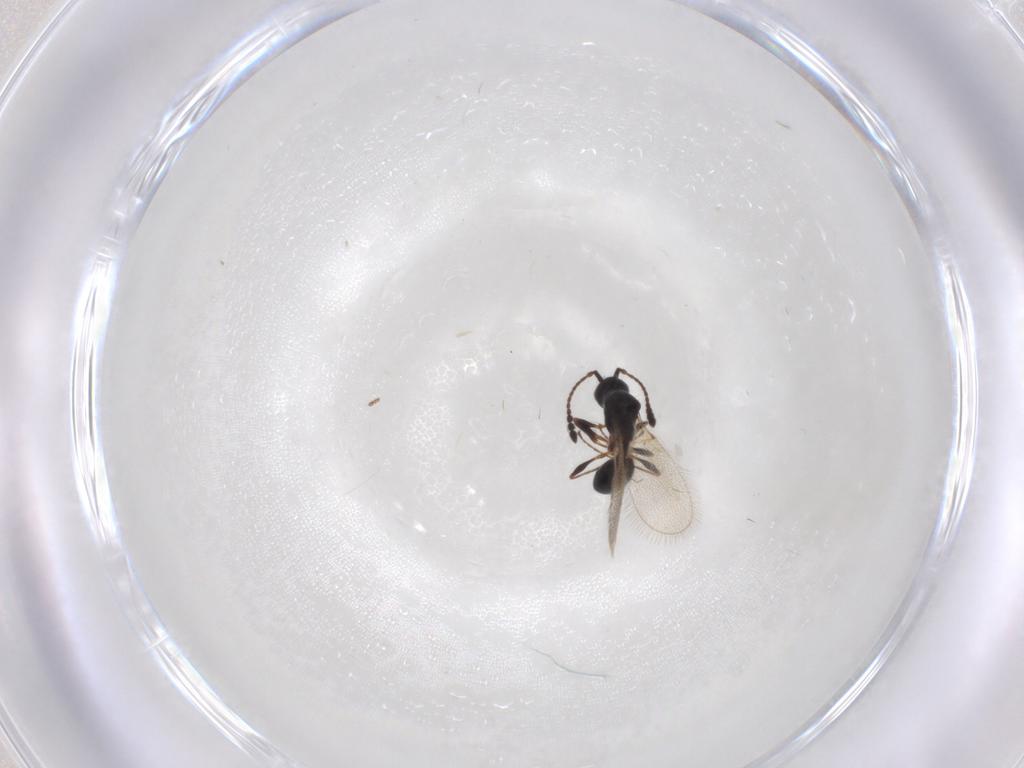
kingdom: Animalia
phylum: Arthropoda
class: Insecta
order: Hymenoptera
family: Diapriidae
